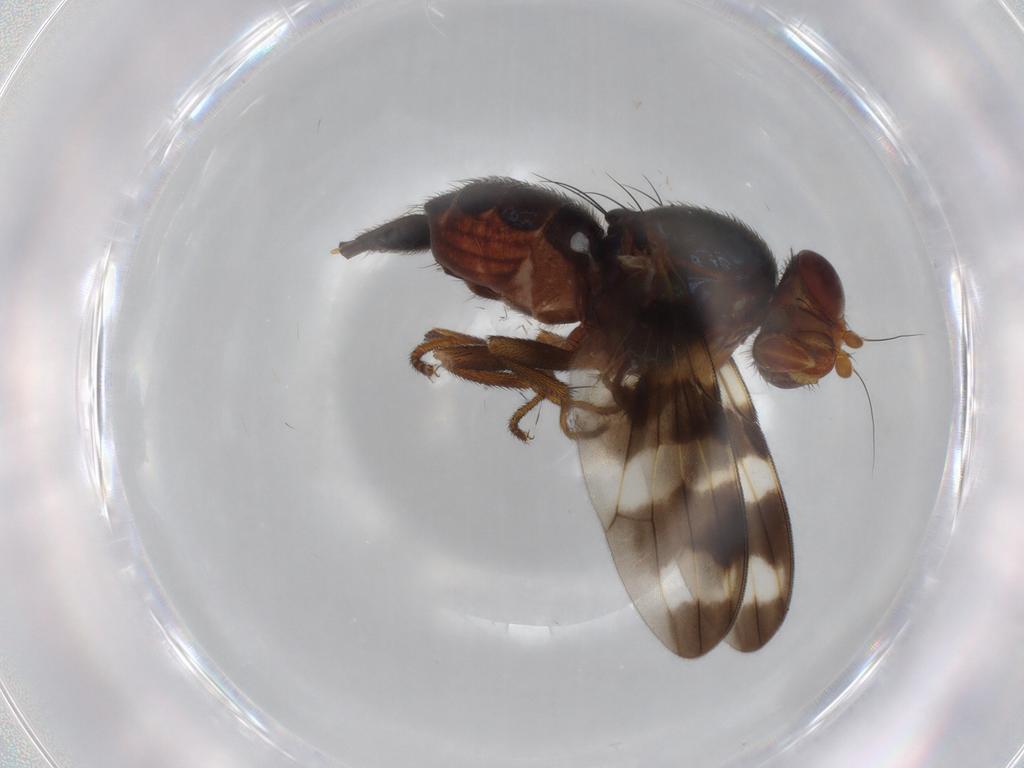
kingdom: Animalia
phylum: Arthropoda
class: Insecta
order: Diptera
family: Ulidiidae
